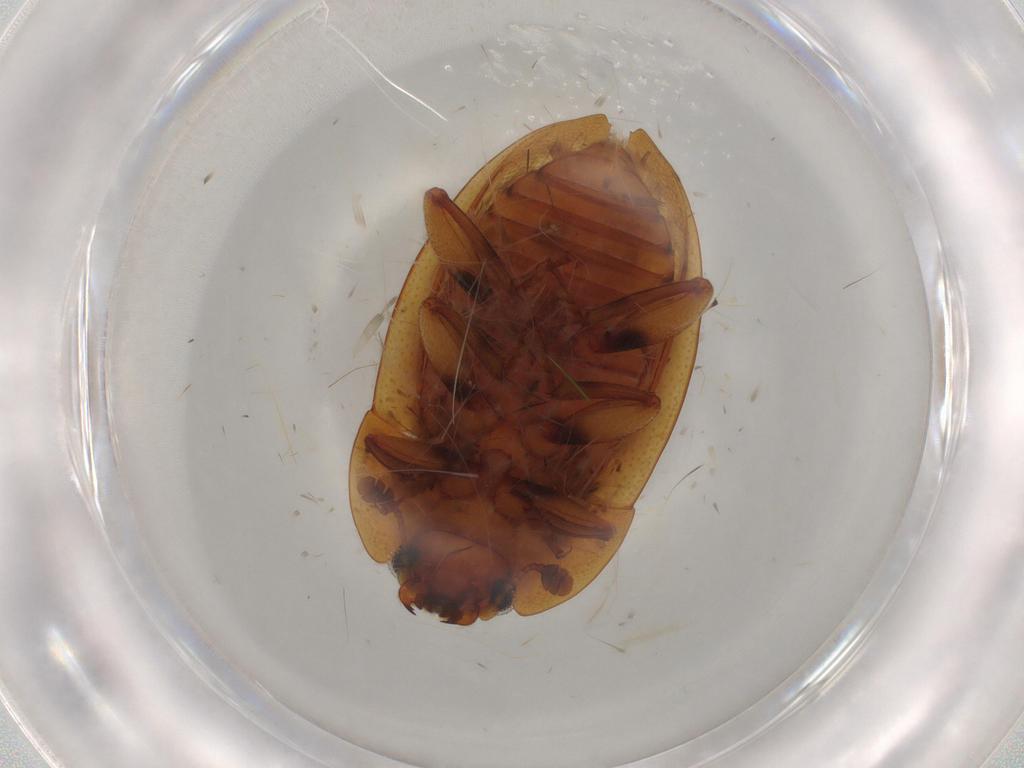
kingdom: Animalia
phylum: Arthropoda
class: Insecta
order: Coleoptera
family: Nitidulidae
